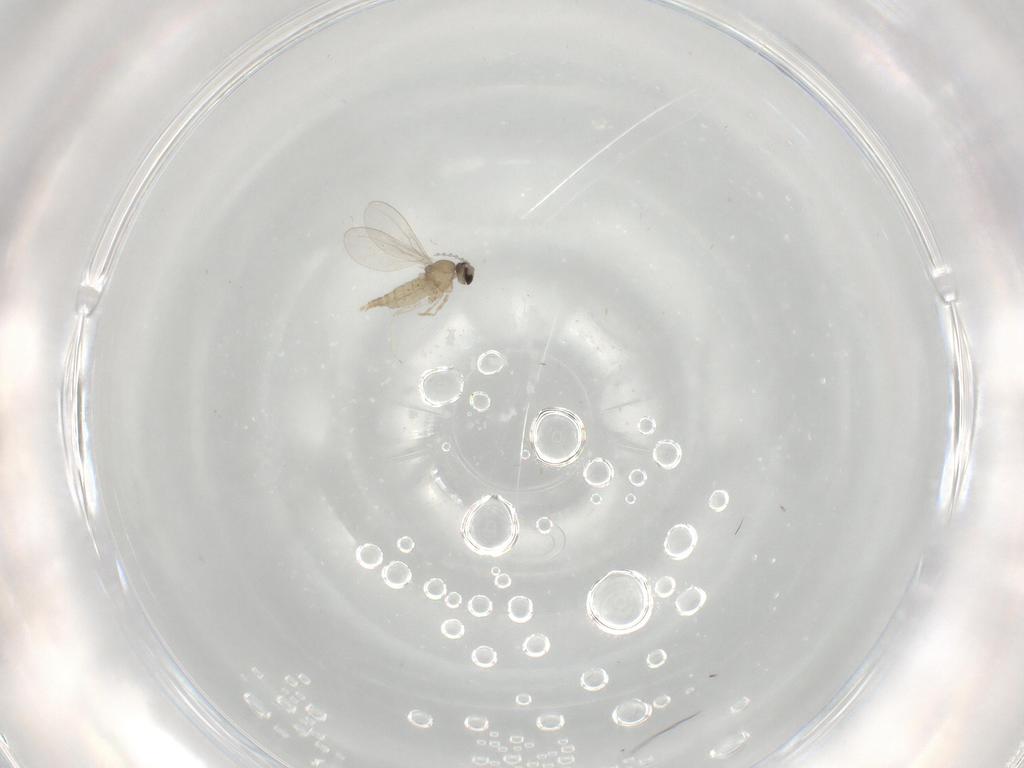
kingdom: Animalia
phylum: Arthropoda
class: Insecta
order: Diptera
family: Cecidomyiidae
